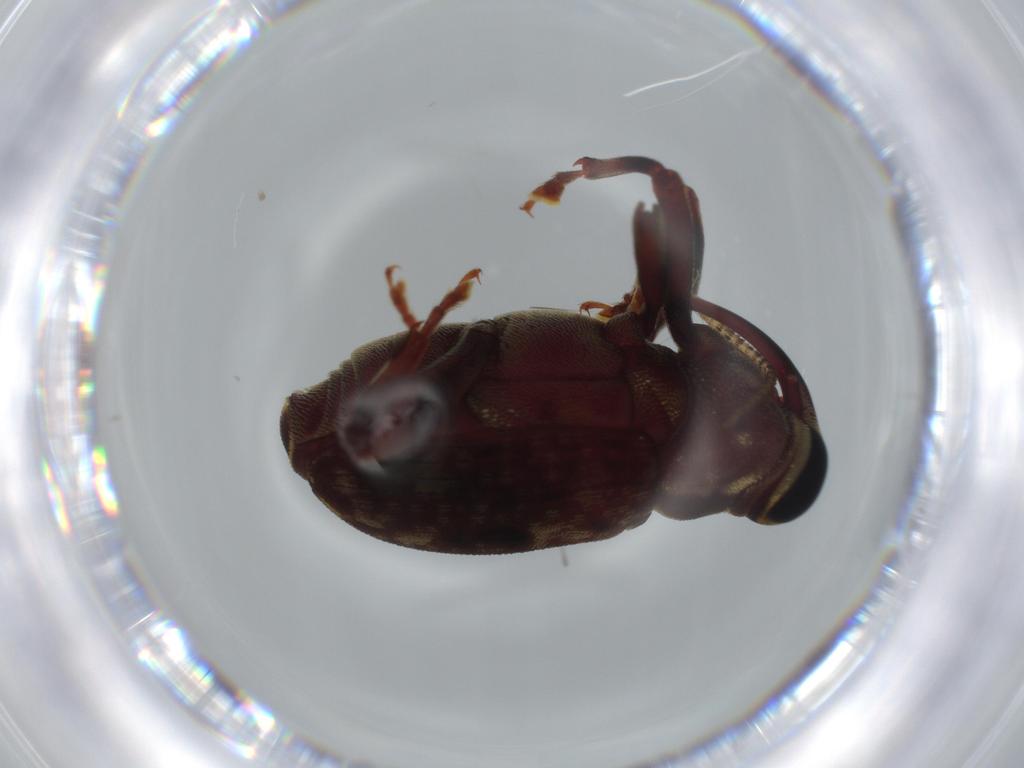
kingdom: Animalia
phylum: Arthropoda
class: Insecta
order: Coleoptera
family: Curculionidae
